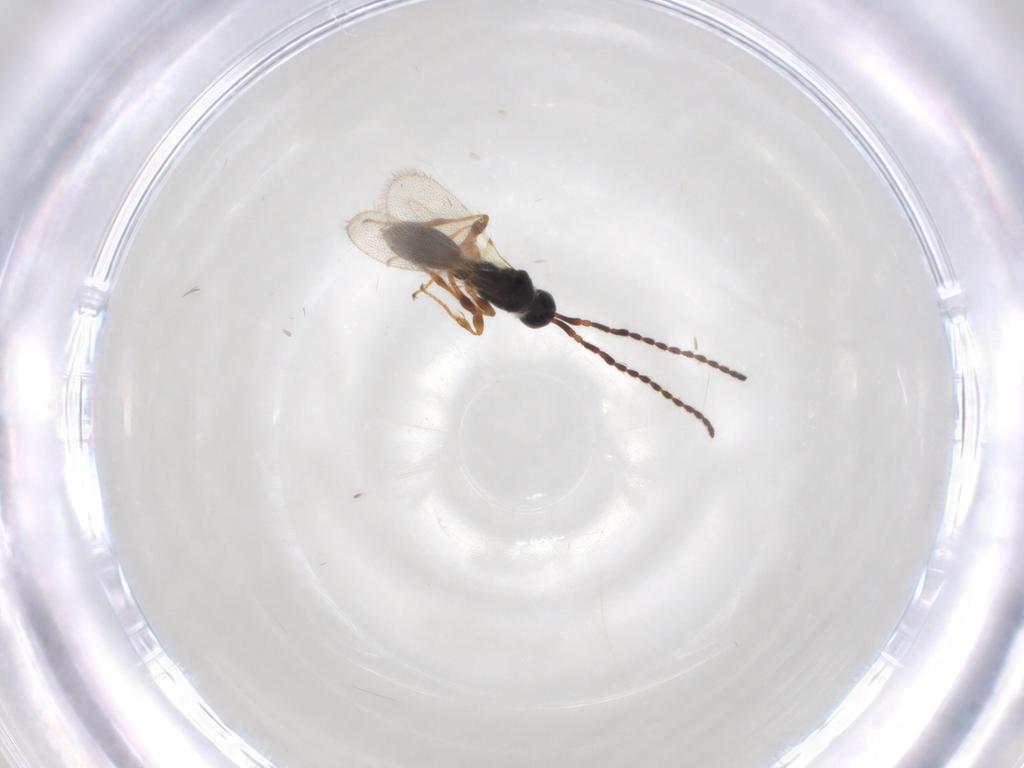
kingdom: Animalia
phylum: Arthropoda
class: Insecta
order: Hymenoptera
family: Diapriidae
